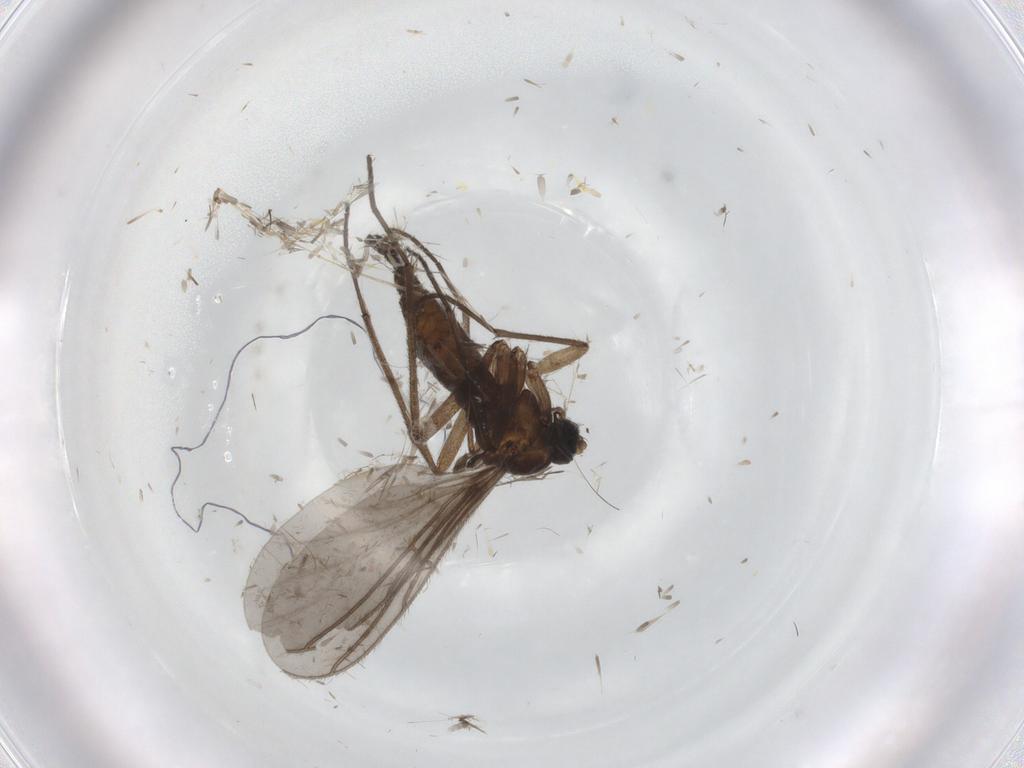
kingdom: Animalia
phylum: Arthropoda
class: Insecta
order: Diptera
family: Sciaridae
